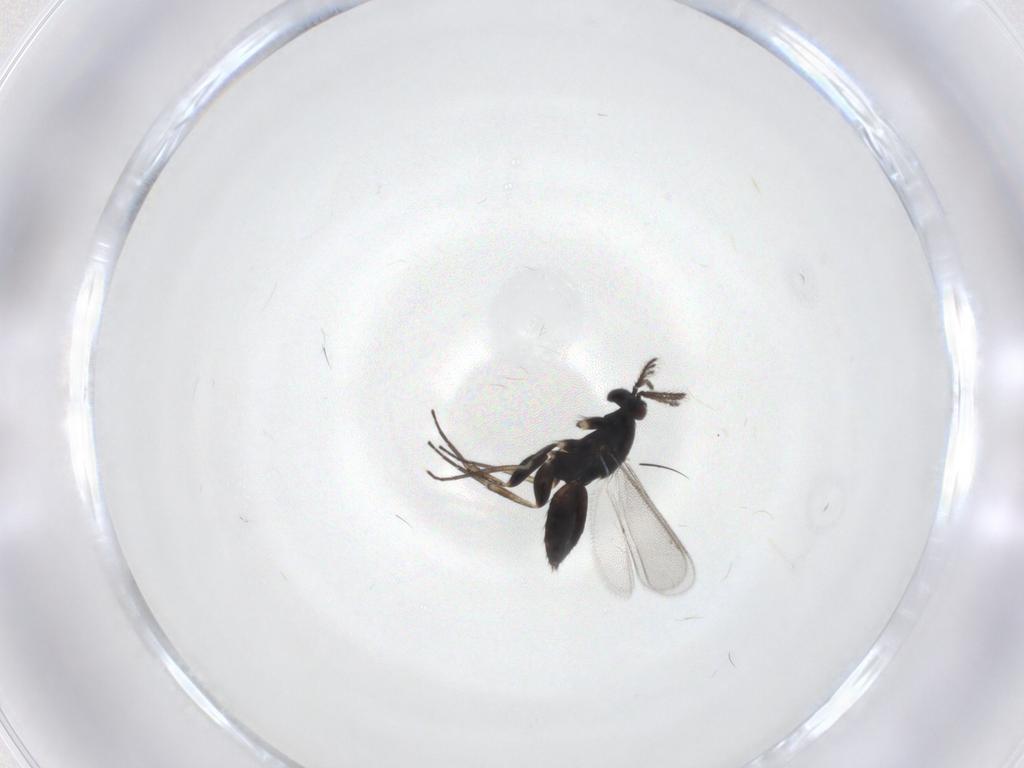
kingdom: Animalia
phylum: Arthropoda
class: Insecta
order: Hymenoptera
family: Eulophidae
